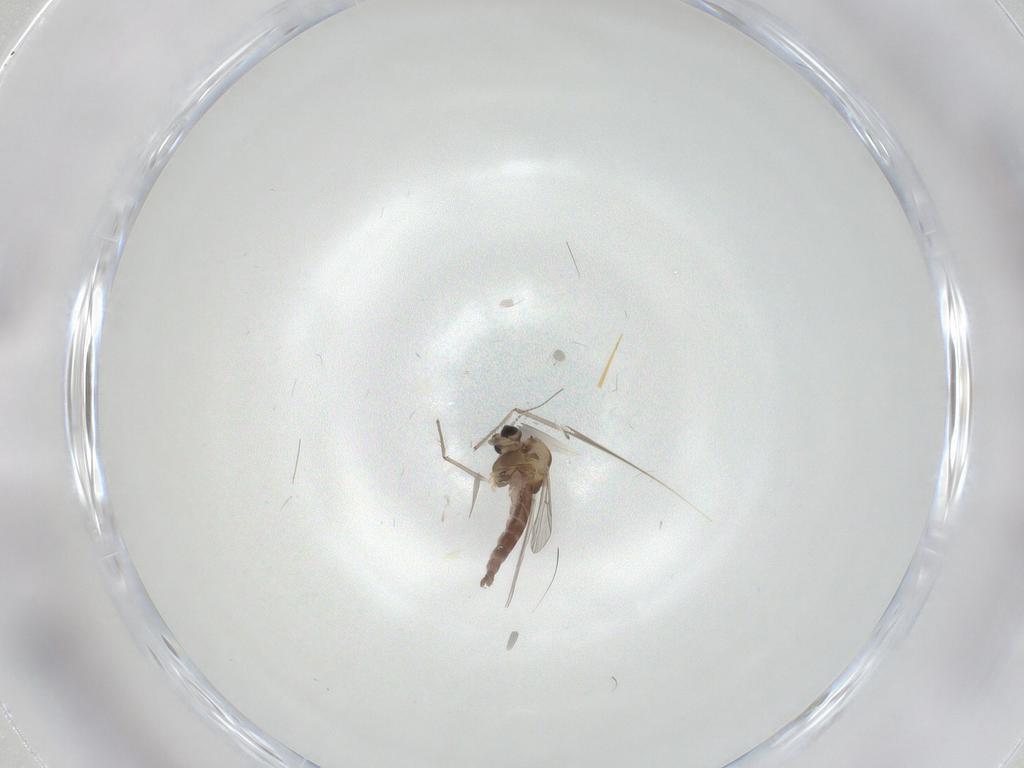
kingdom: Animalia
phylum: Arthropoda
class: Insecta
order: Diptera
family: Chironomidae
